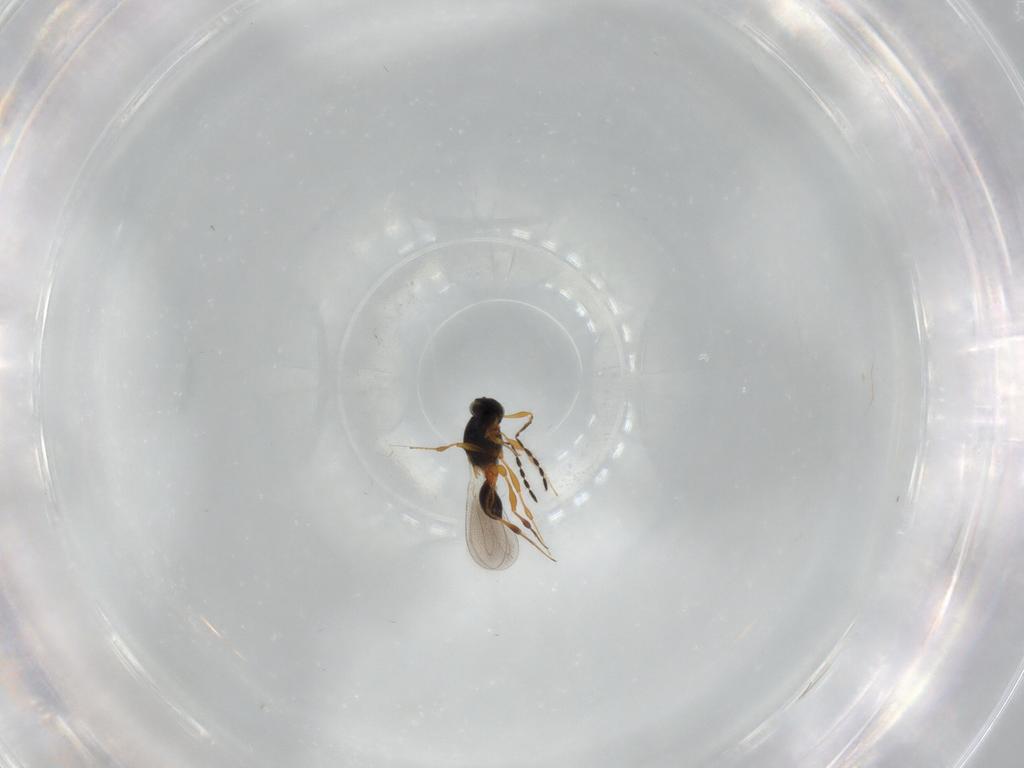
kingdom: Animalia
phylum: Arthropoda
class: Insecta
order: Hymenoptera
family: Platygastridae
